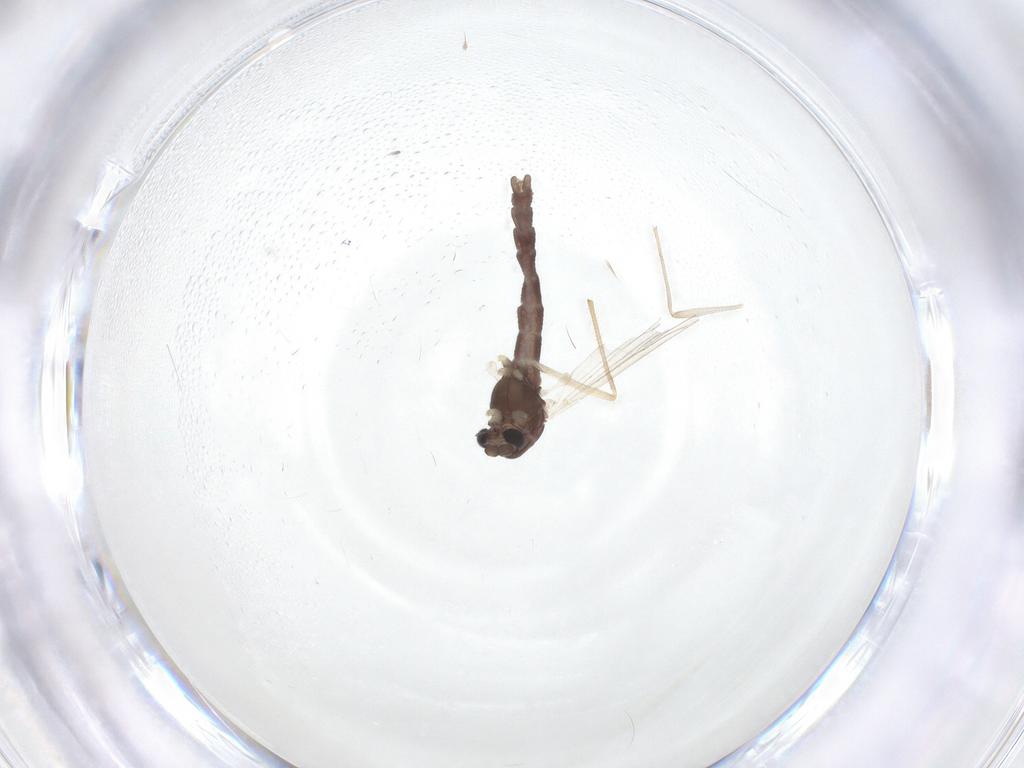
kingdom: Animalia
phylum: Arthropoda
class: Insecta
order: Diptera
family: Chironomidae
